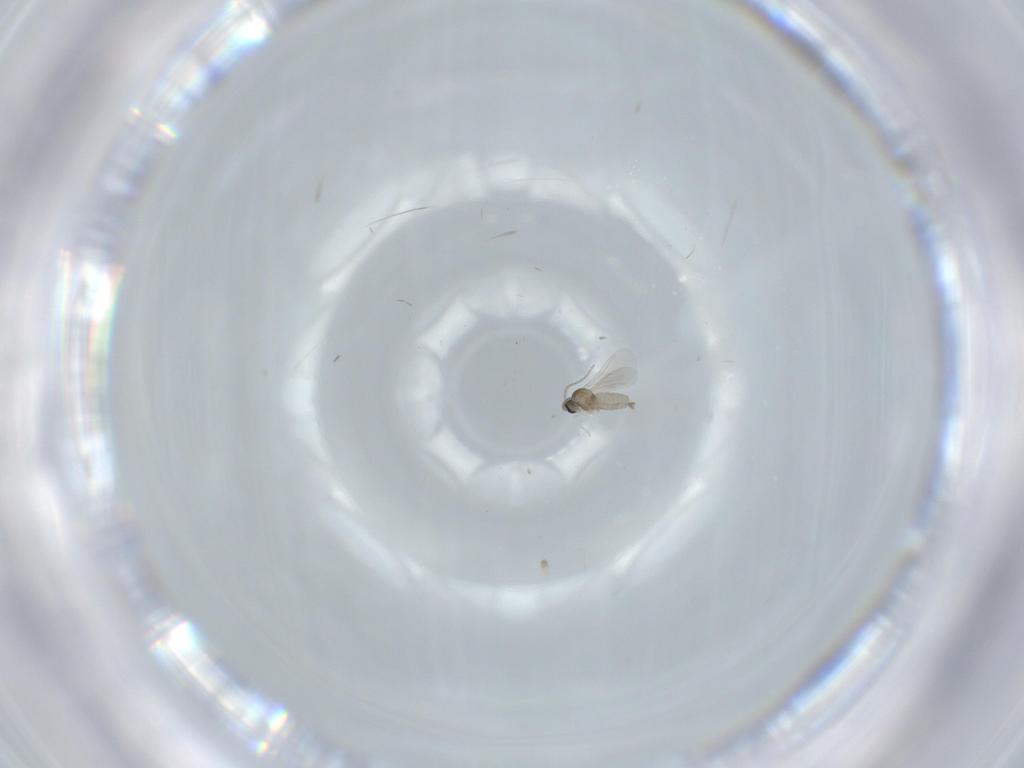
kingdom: Animalia
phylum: Arthropoda
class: Insecta
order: Diptera
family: Cecidomyiidae
